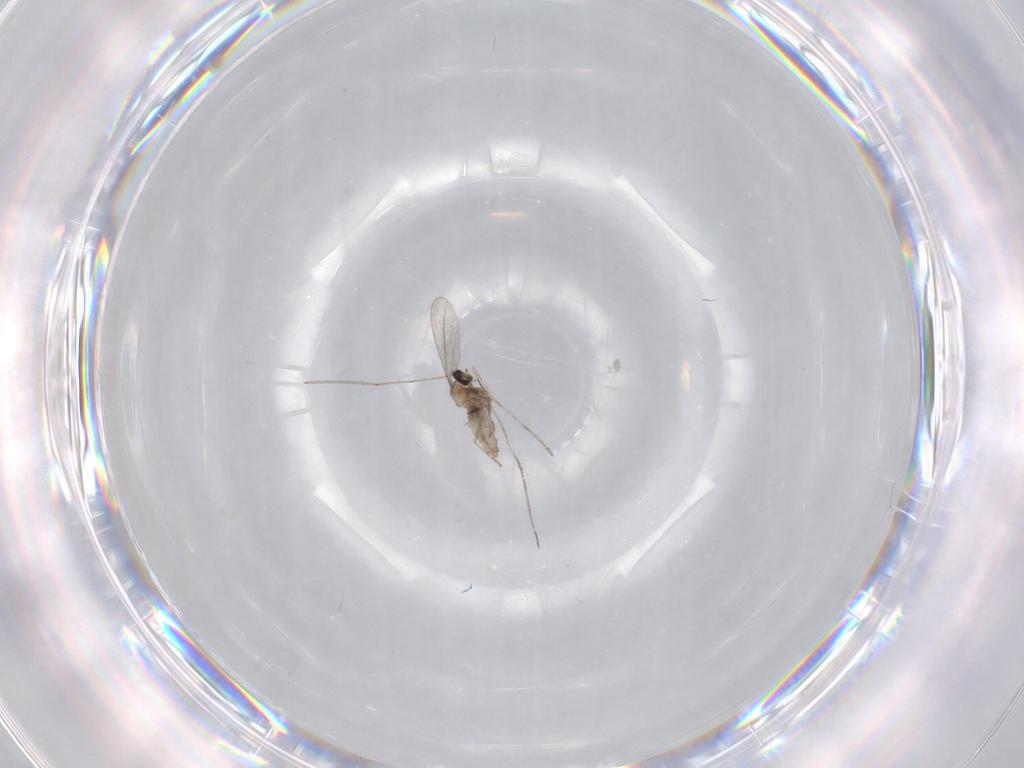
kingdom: Animalia
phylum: Arthropoda
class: Insecta
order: Diptera
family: Cecidomyiidae
